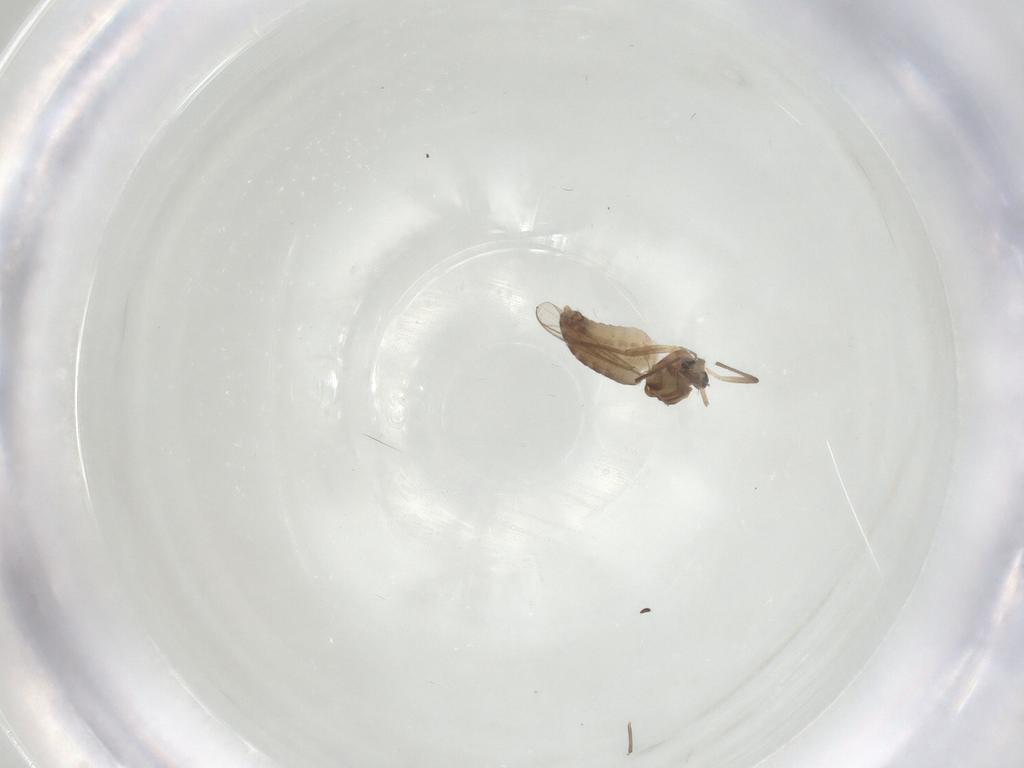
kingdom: Animalia
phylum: Arthropoda
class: Insecta
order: Diptera
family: Chironomidae
